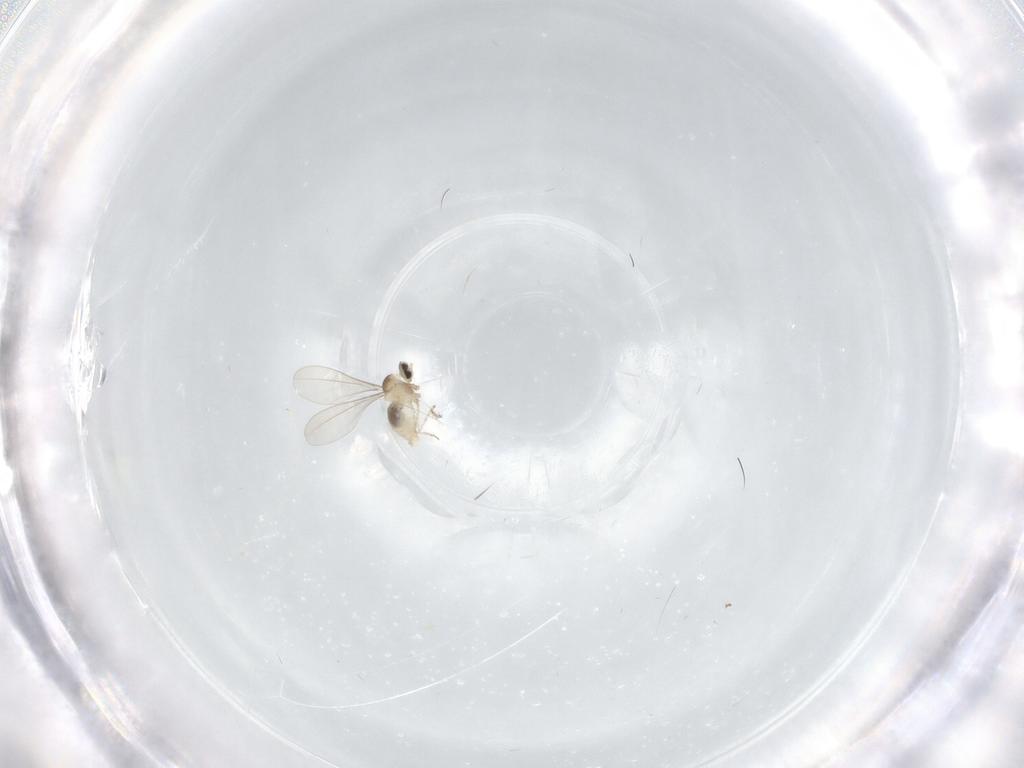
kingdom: Animalia
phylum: Arthropoda
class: Insecta
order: Diptera
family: Cecidomyiidae
